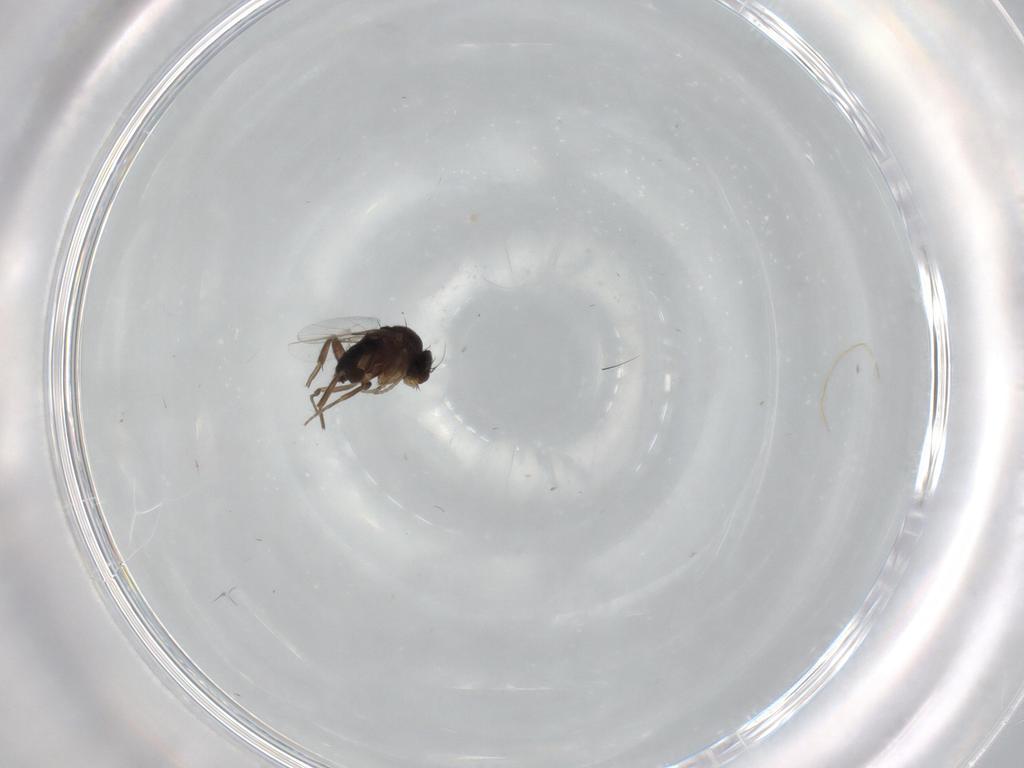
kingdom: Animalia
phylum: Arthropoda
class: Insecta
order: Diptera
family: Phoridae
